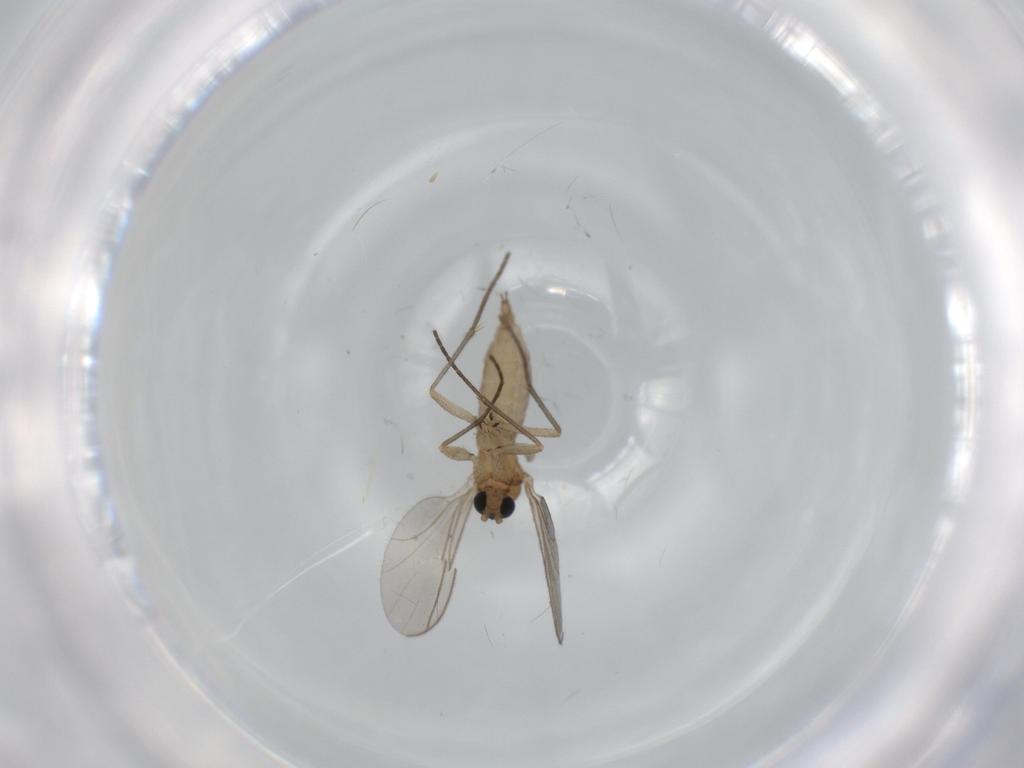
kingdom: Animalia
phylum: Arthropoda
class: Insecta
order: Diptera
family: Sciaridae
